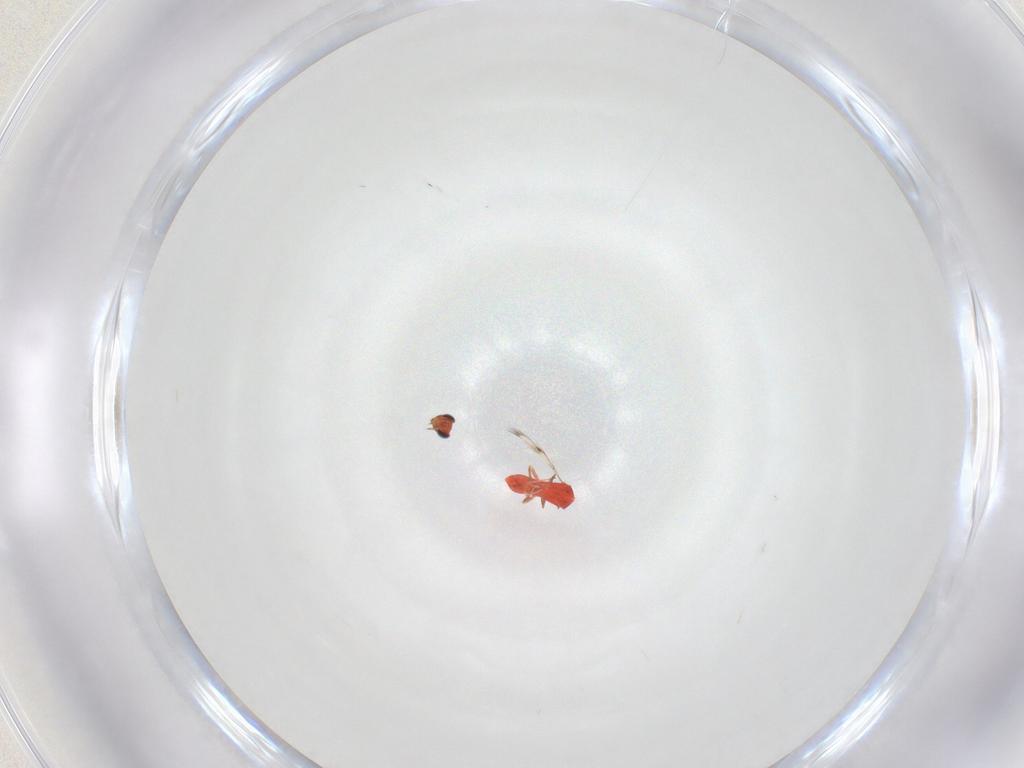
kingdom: Animalia
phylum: Arthropoda
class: Insecta
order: Hymenoptera
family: Trichogrammatidae
